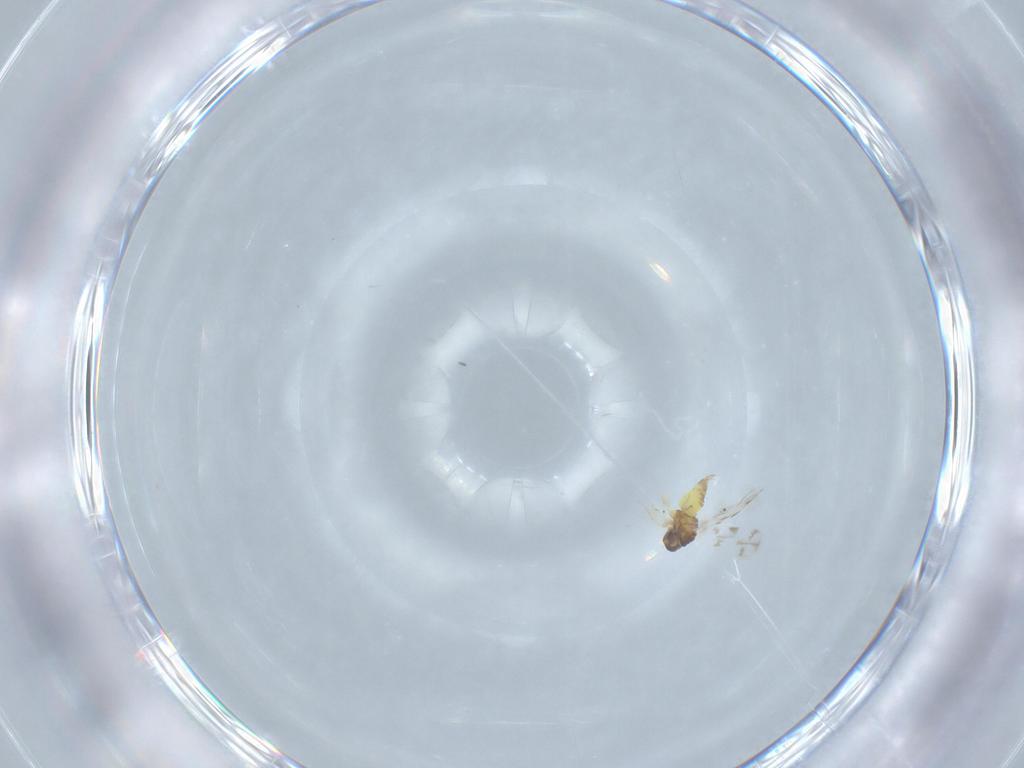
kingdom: Animalia
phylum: Arthropoda
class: Insecta
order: Hemiptera
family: Aleyrodidae
